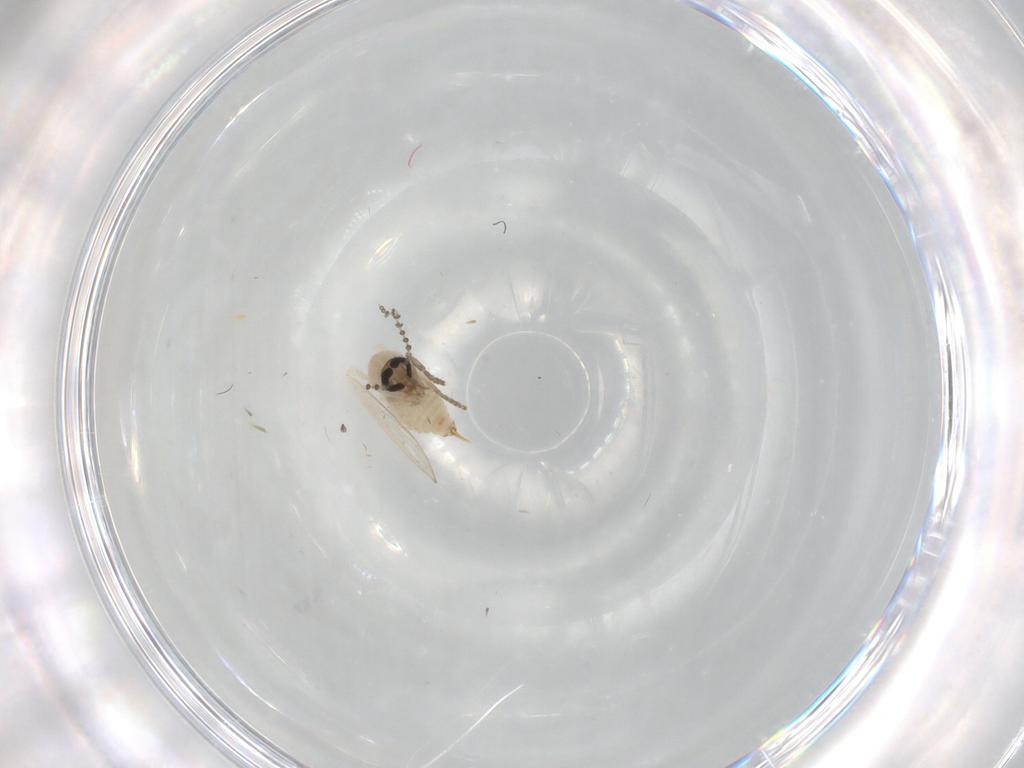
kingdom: Animalia
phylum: Arthropoda
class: Insecta
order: Diptera
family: Psychodidae
